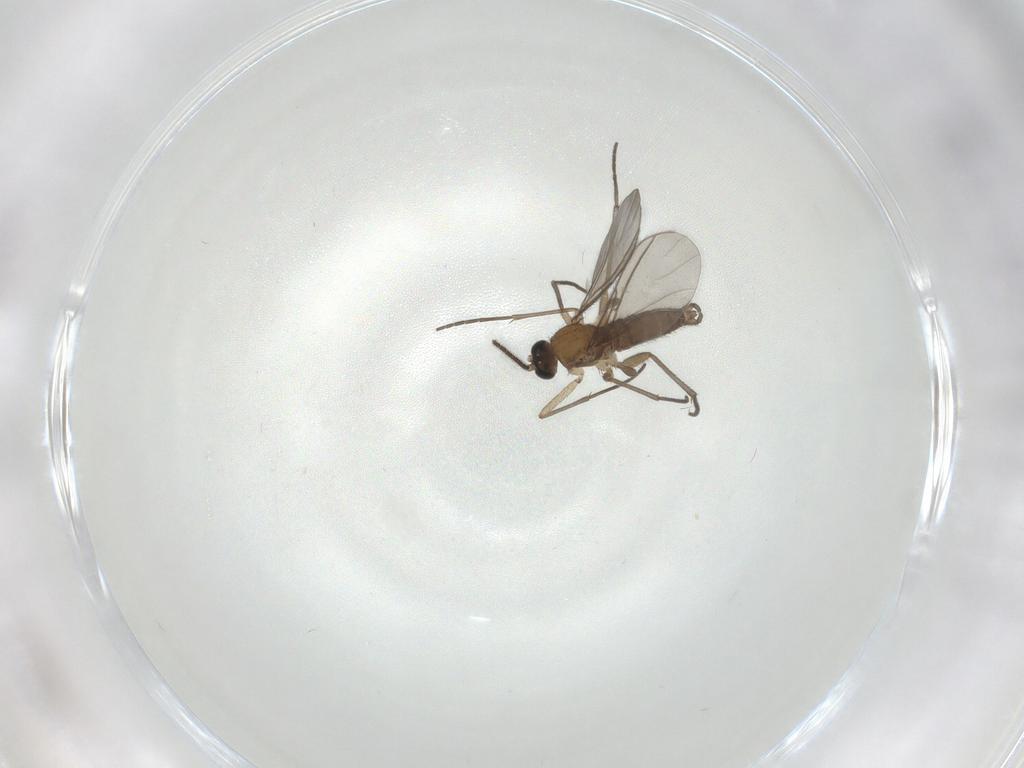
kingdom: Animalia
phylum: Arthropoda
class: Insecta
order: Diptera
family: Sciaridae
